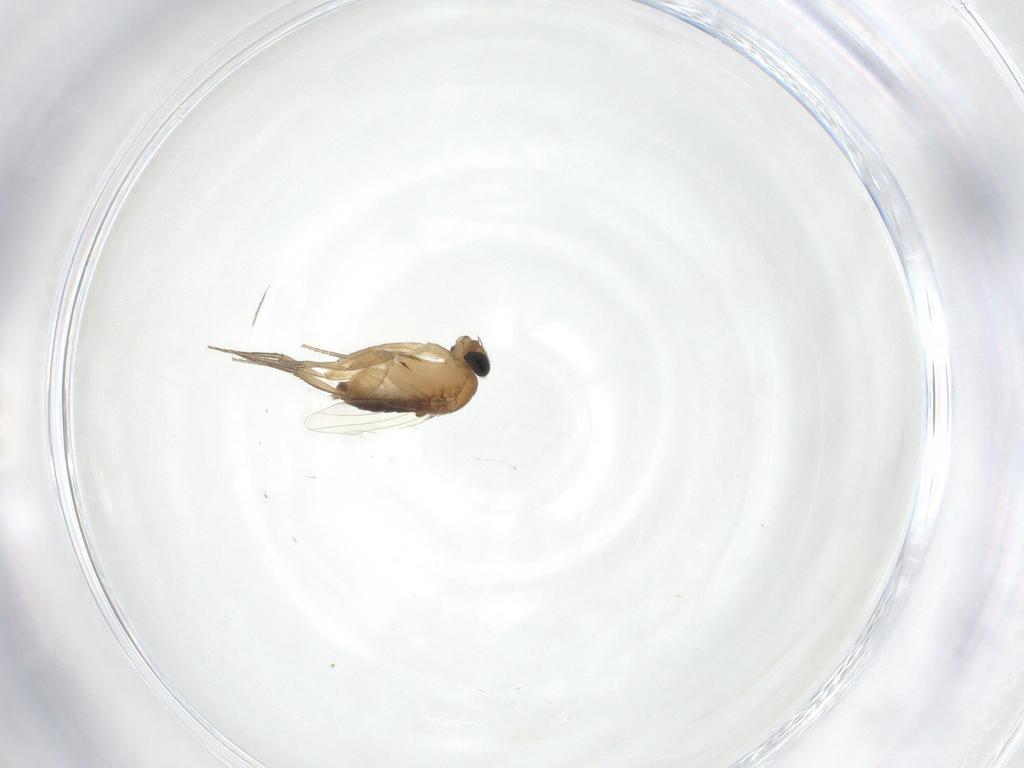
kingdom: Animalia
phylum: Arthropoda
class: Insecta
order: Diptera
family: Phoridae
